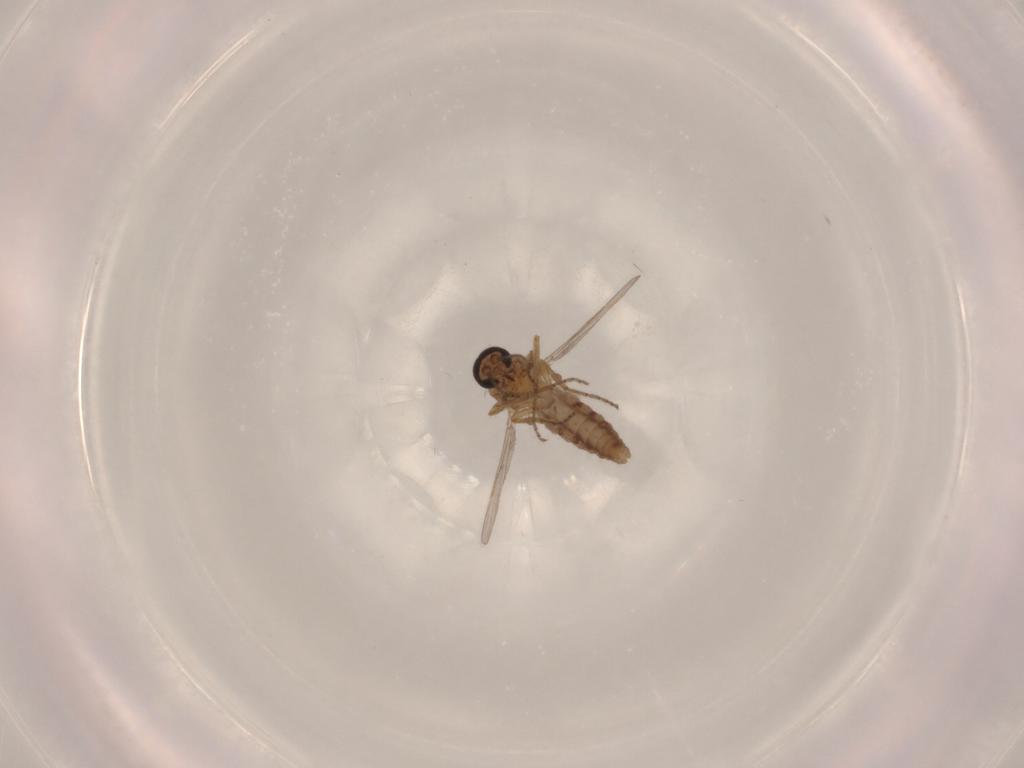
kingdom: Animalia
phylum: Arthropoda
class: Insecta
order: Diptera
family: Ceratopogonidae
